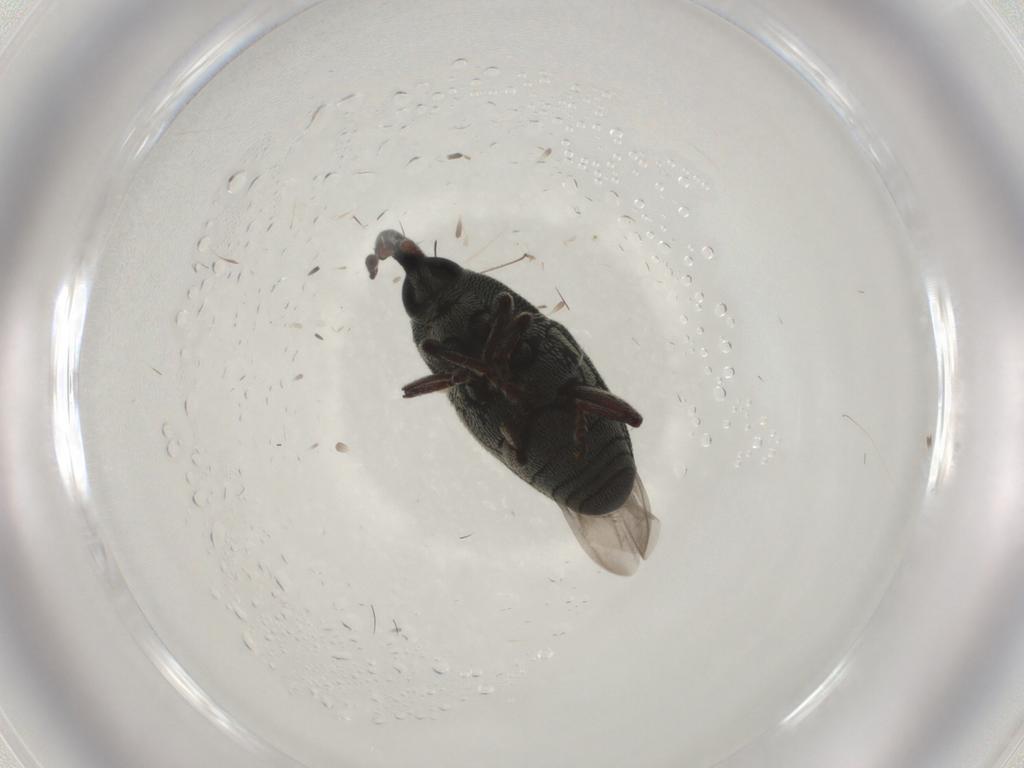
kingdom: Animalia
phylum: Arthropoda
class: Insecta
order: Coleoptera
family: Curculionidae
